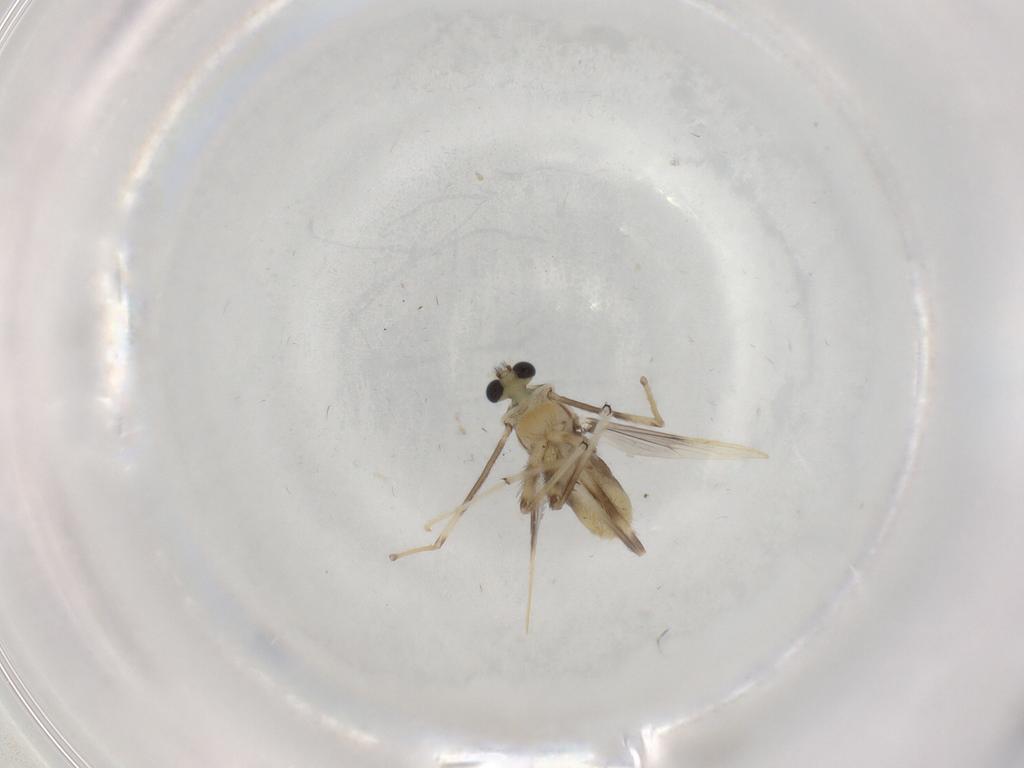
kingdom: Animalia
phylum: Arthropoda
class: Insecta
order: Diptera
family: Chironomidae
